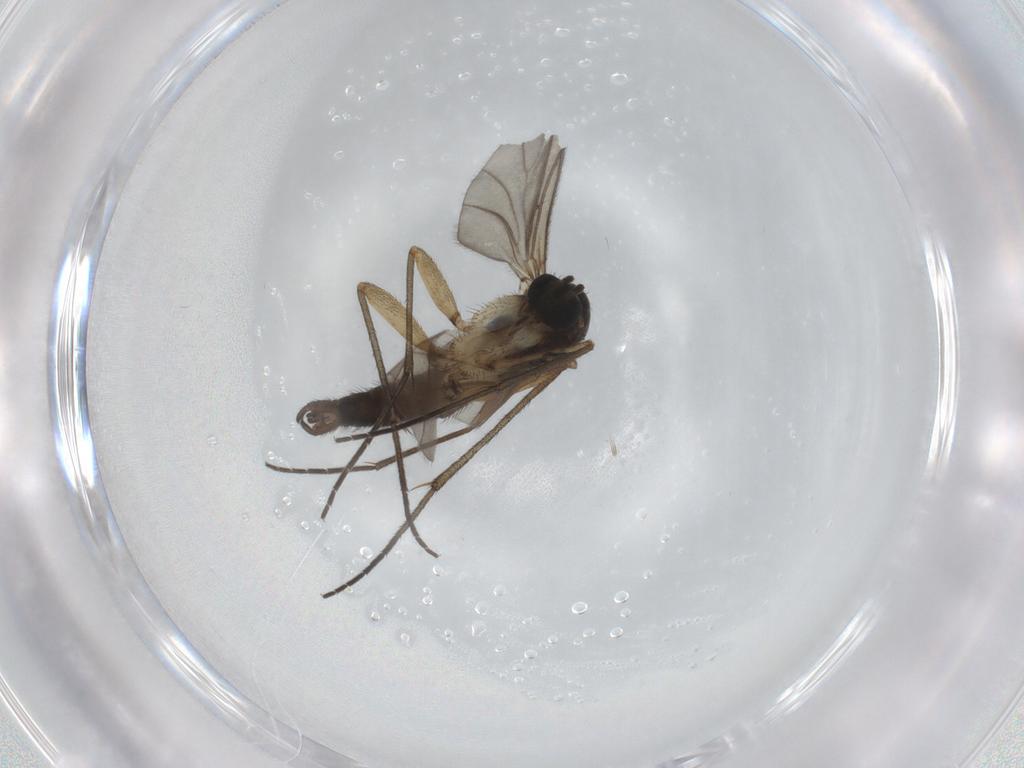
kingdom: Animalia
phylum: Arthropoda
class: Insecta
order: Diptera
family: Sciaridae
